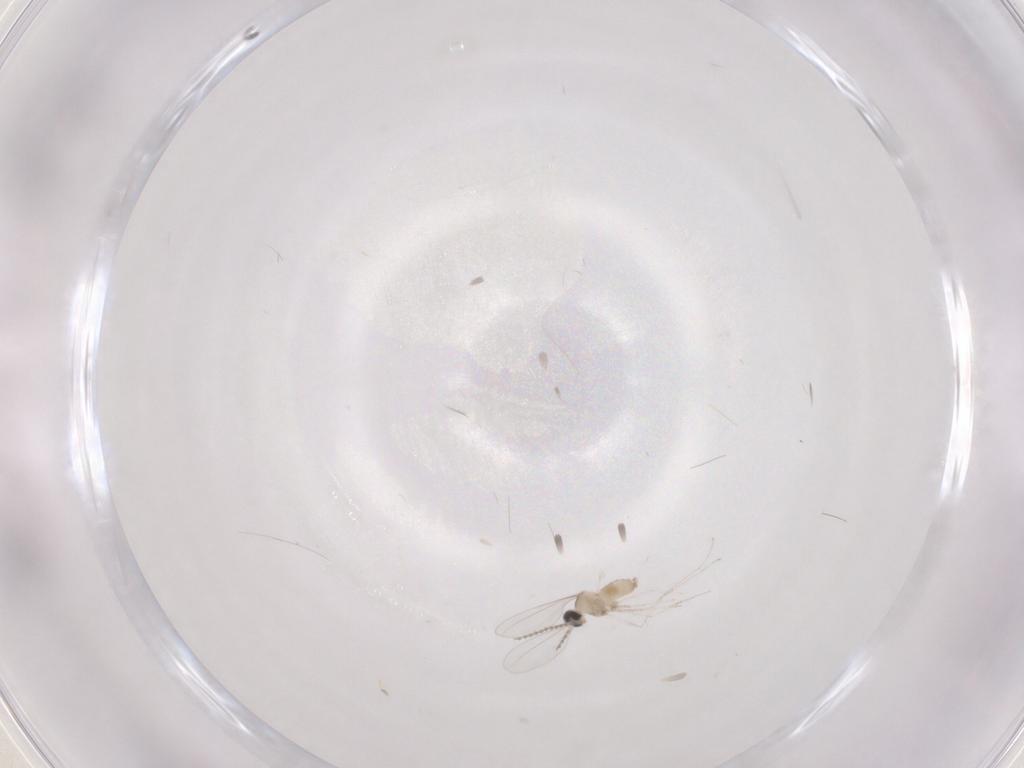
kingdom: Animalia
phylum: Arthropoda
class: Insecta
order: Diptera
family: Cecidomyiidae
